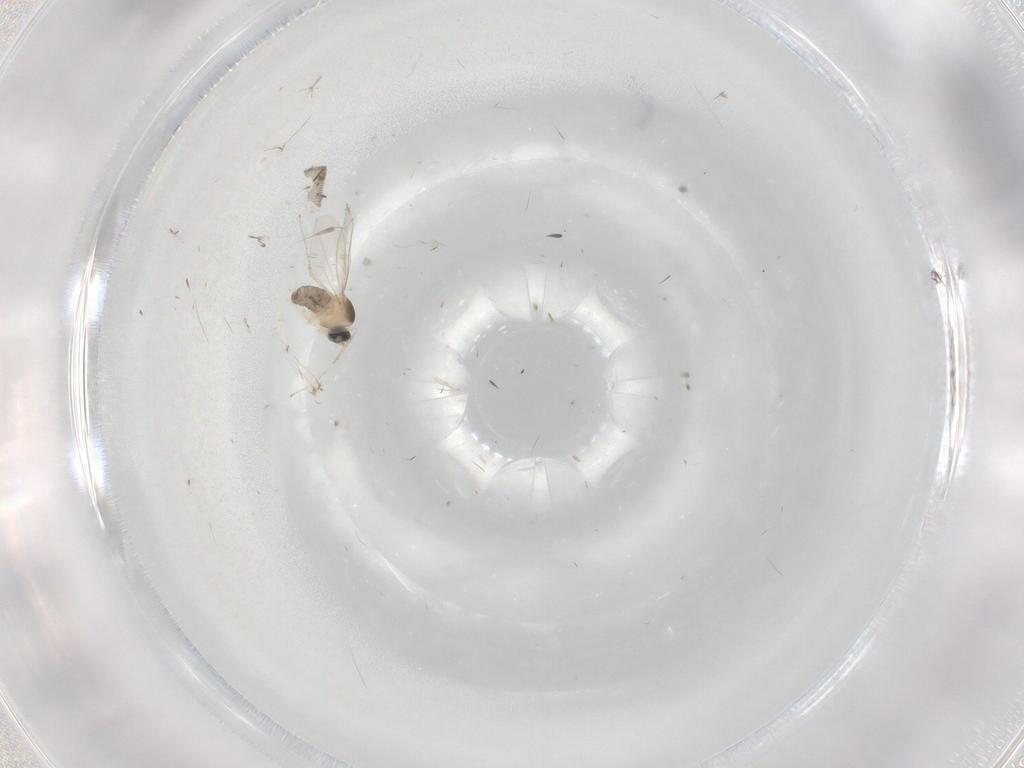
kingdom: Animalia
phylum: Arthropoda
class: Insecta
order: Diptera
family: Cecidomyiidae
